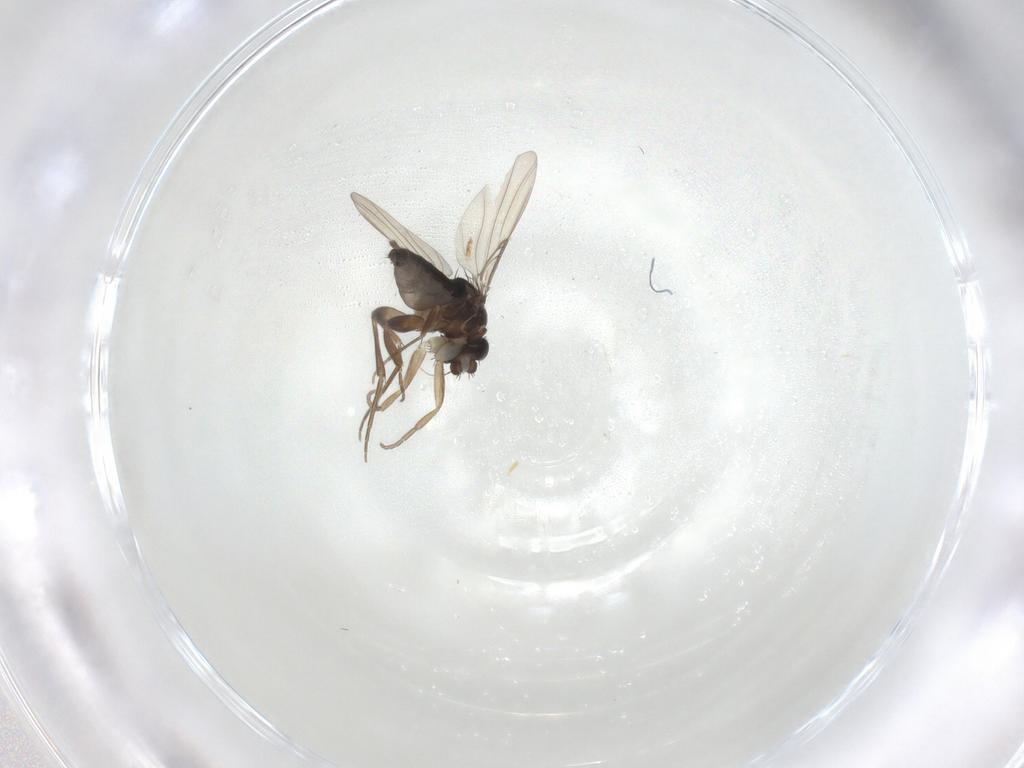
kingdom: Animalia
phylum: Arthropoda
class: Insecta
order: Diptera
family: Phoridae
